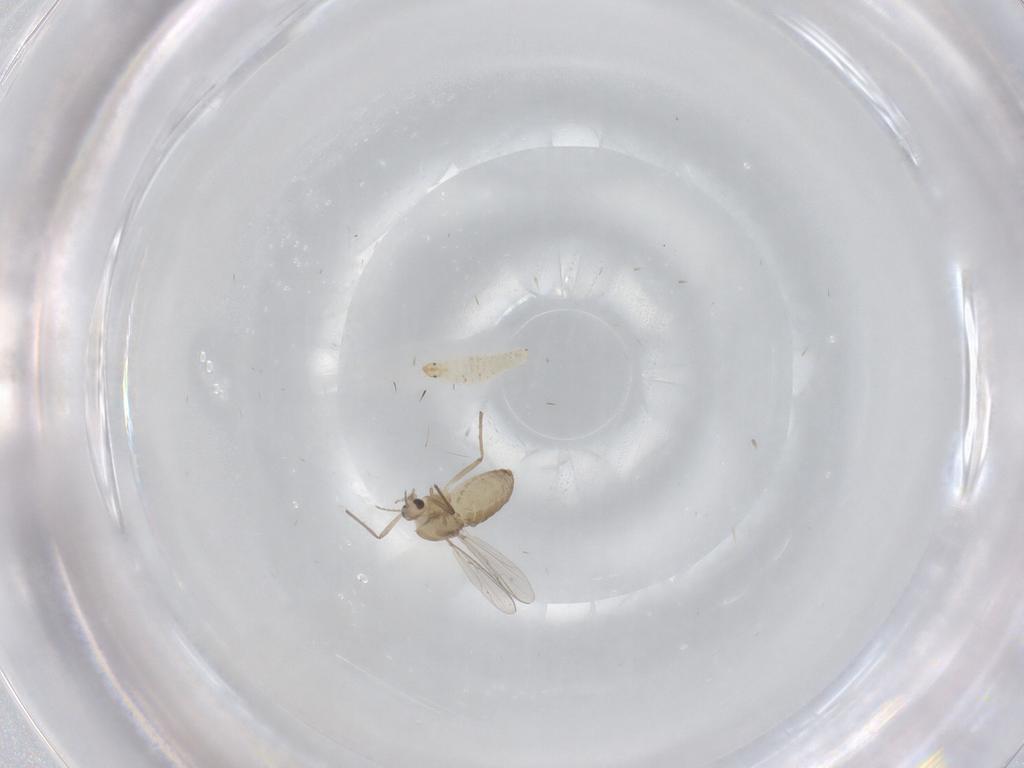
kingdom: Animalia
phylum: Arthropoda
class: Insecta
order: Diptera
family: Chironomidae
